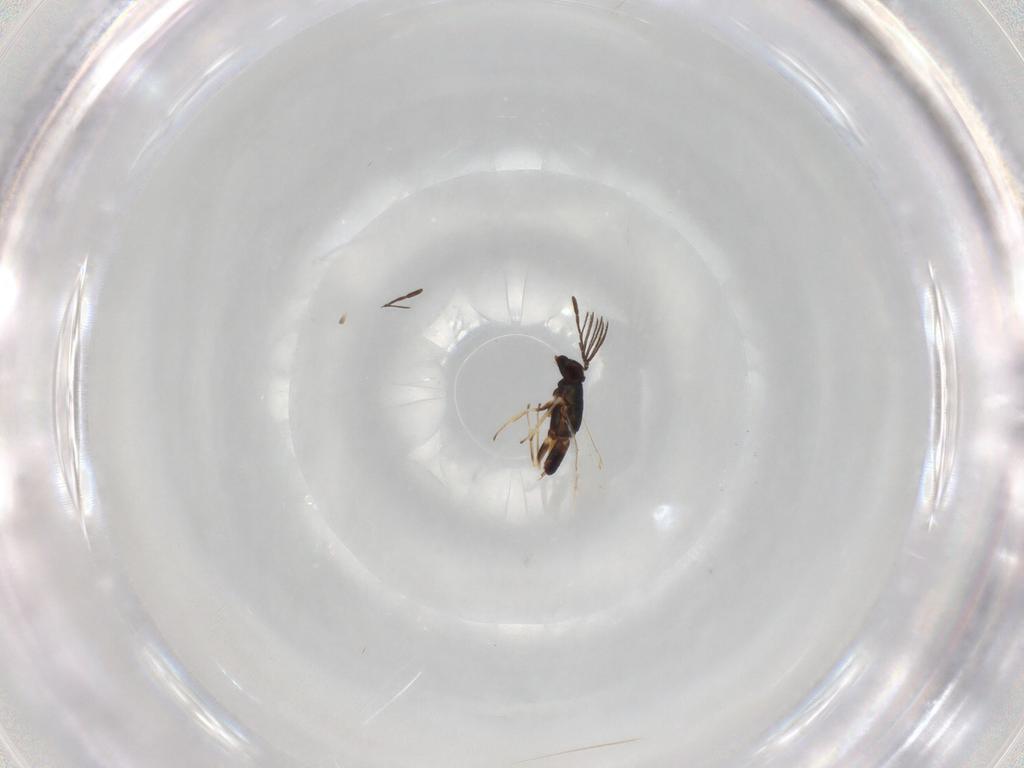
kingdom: Animalia
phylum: Arthropoda
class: Insecta
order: Hymenoptera
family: Encyrtidae
